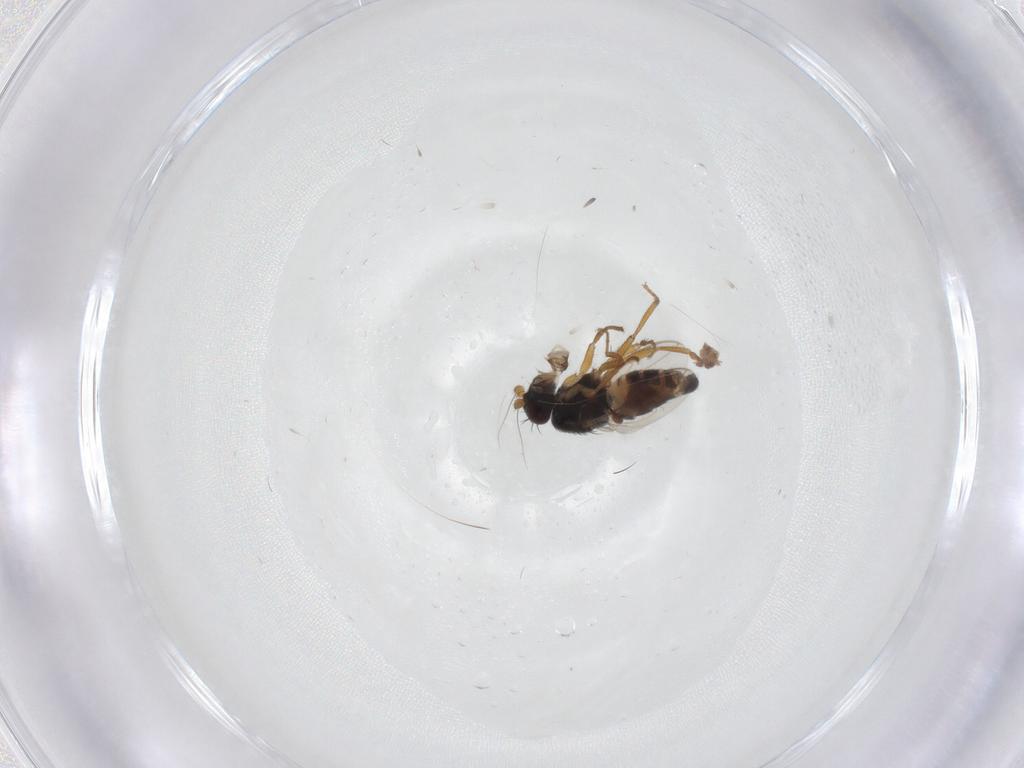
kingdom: Animalia
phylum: Arthropoda
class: Insecta
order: Diptera
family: Sphaeroceridae
